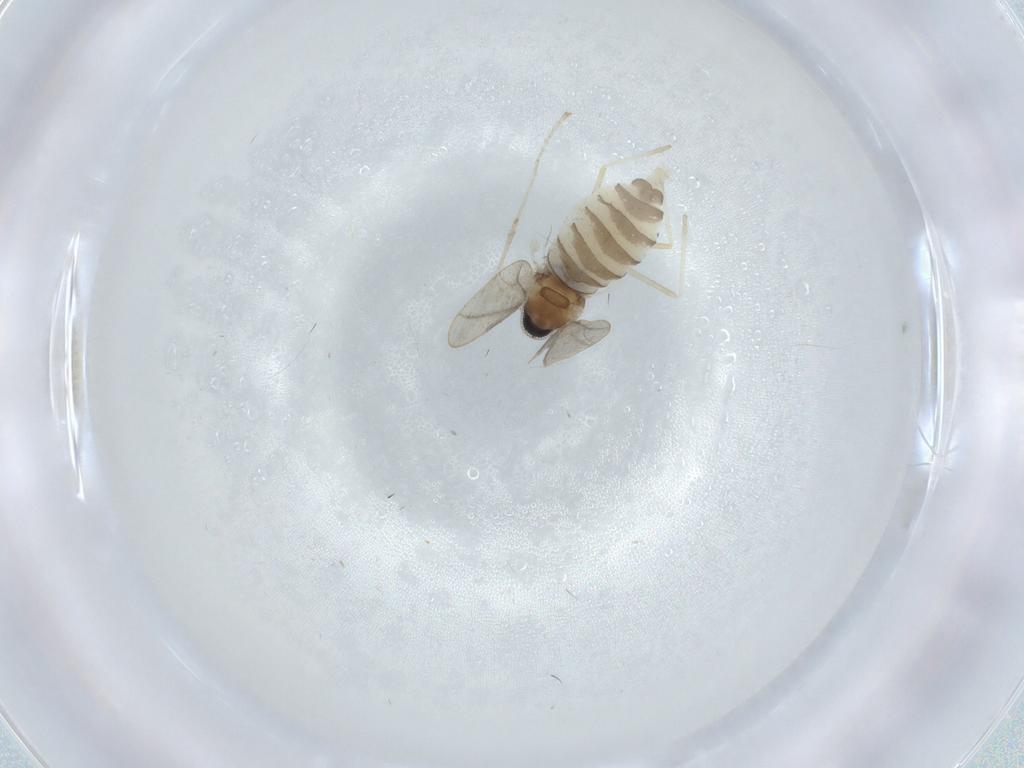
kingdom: Animalia
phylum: Arthropoda
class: Insecta
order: Diptera
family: Cecidomyiidae
